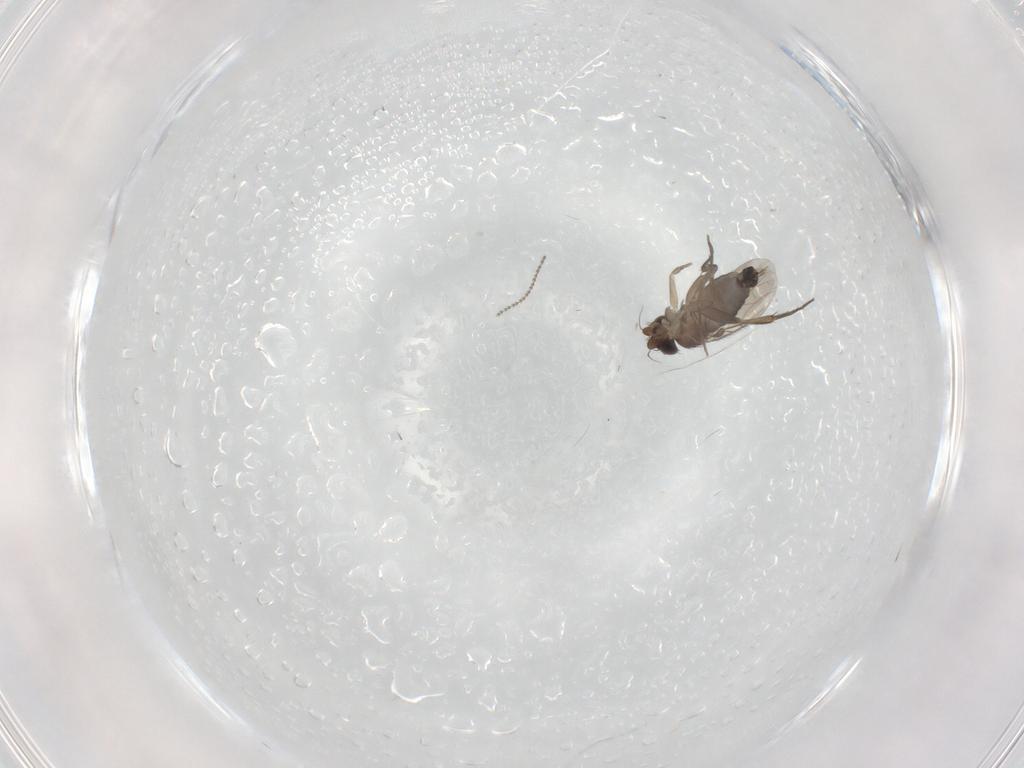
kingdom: Animalia
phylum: Arthropoda
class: Insecta
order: Diptera
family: Phoridae
